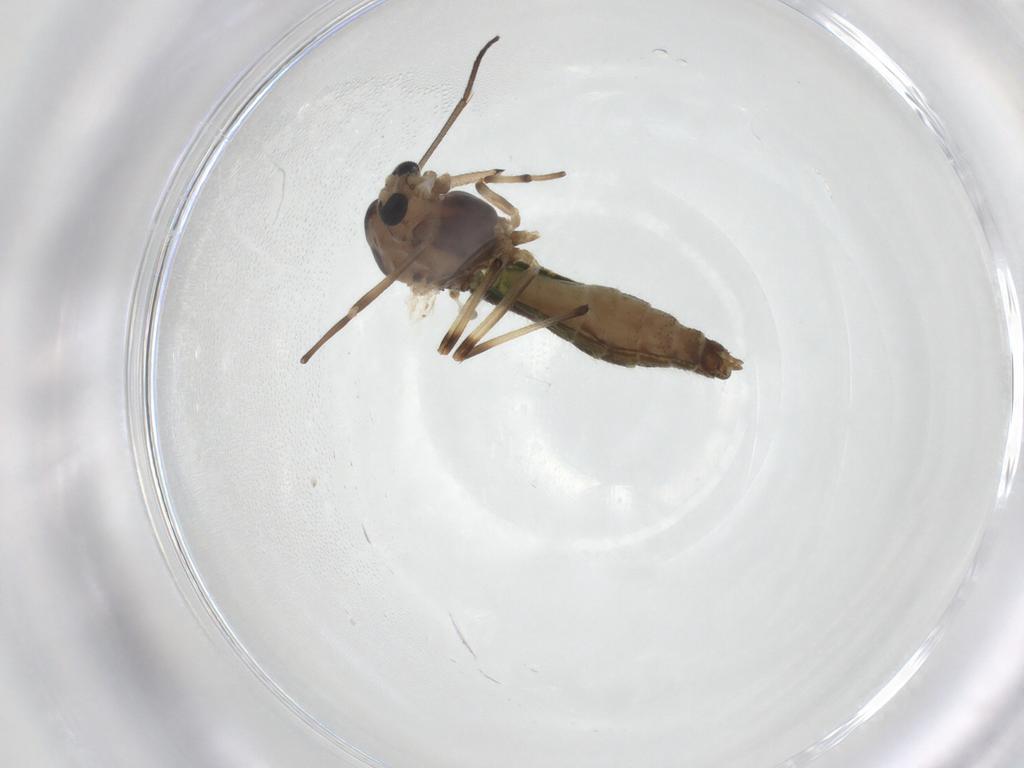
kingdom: Animalia
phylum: Arthropoda
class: Insecta
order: Diptera
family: Chironomidae
